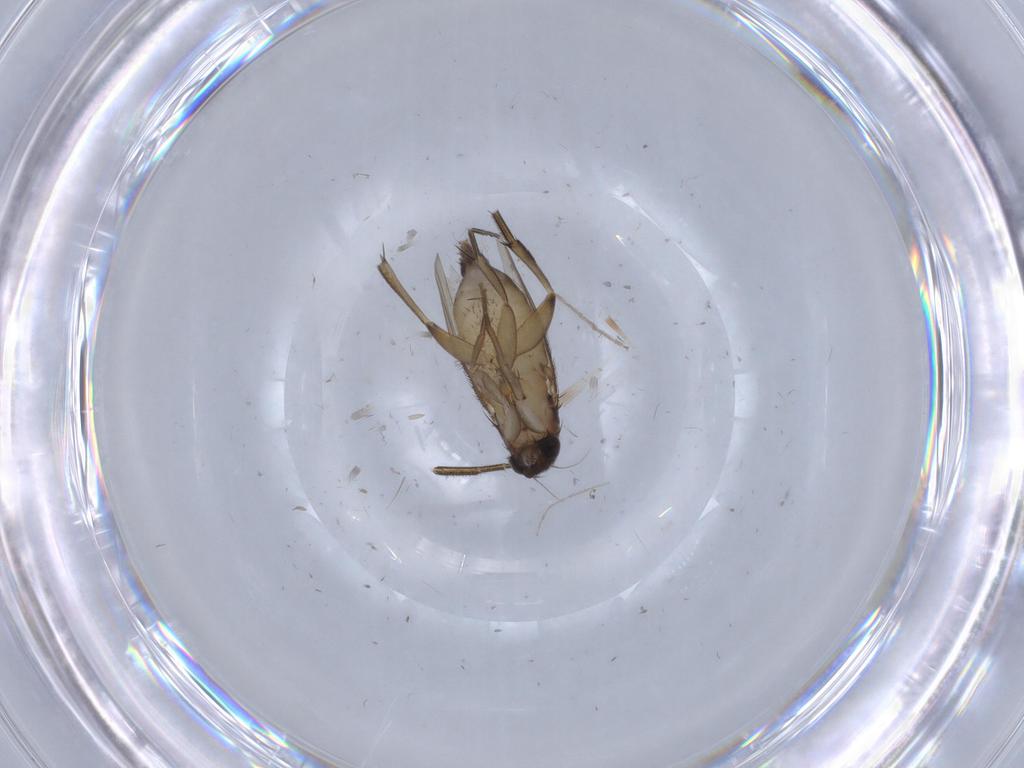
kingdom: Animalia
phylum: Arthropoda
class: Insecta
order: Diptera
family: Phoridae
